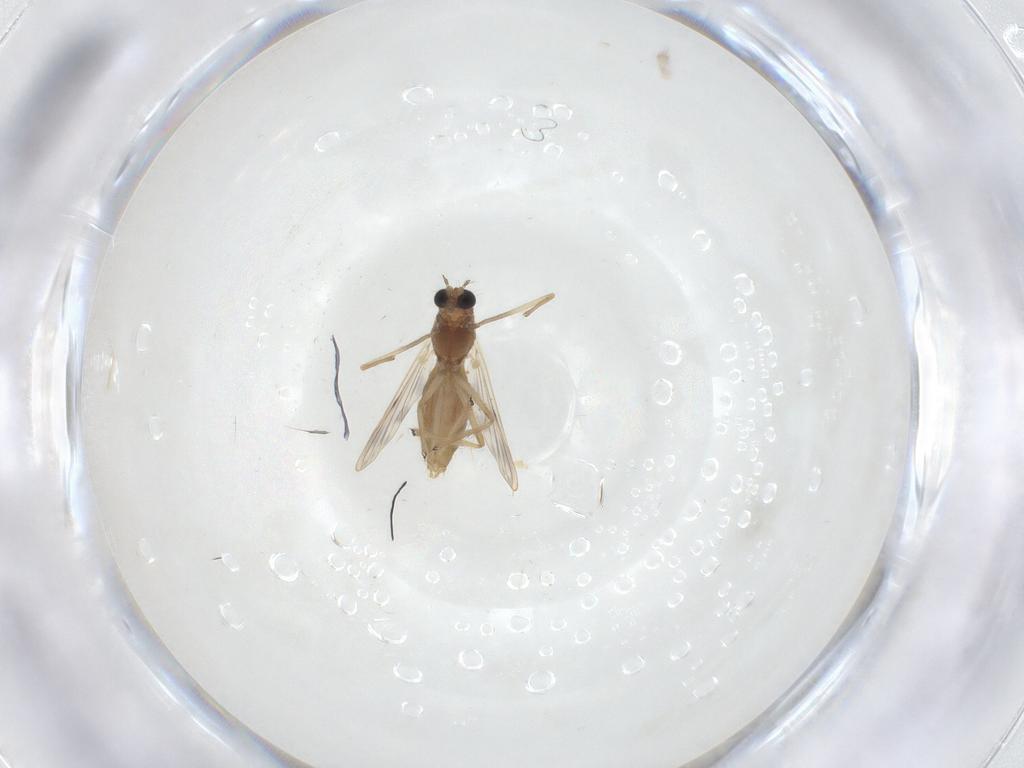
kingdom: Animalia
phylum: Arthropoda
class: Insecta
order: Diptera
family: Chironomidae
